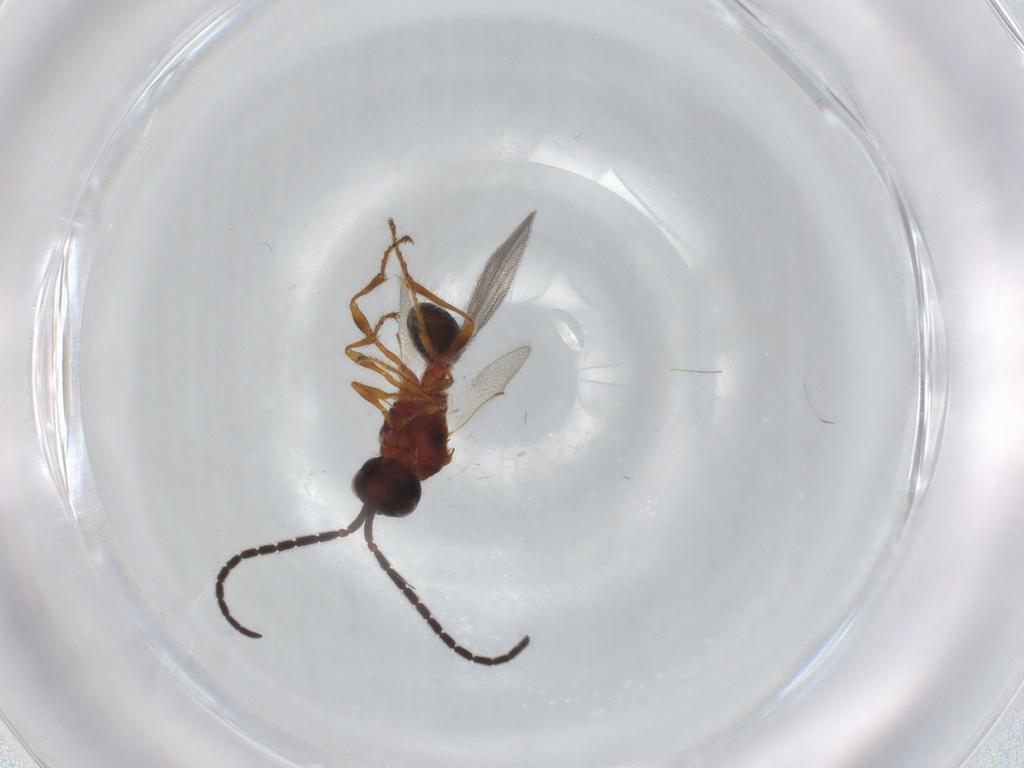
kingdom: Animalia
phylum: Arthropoda
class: Insecta
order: Hymenoptera
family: Diapriidae
